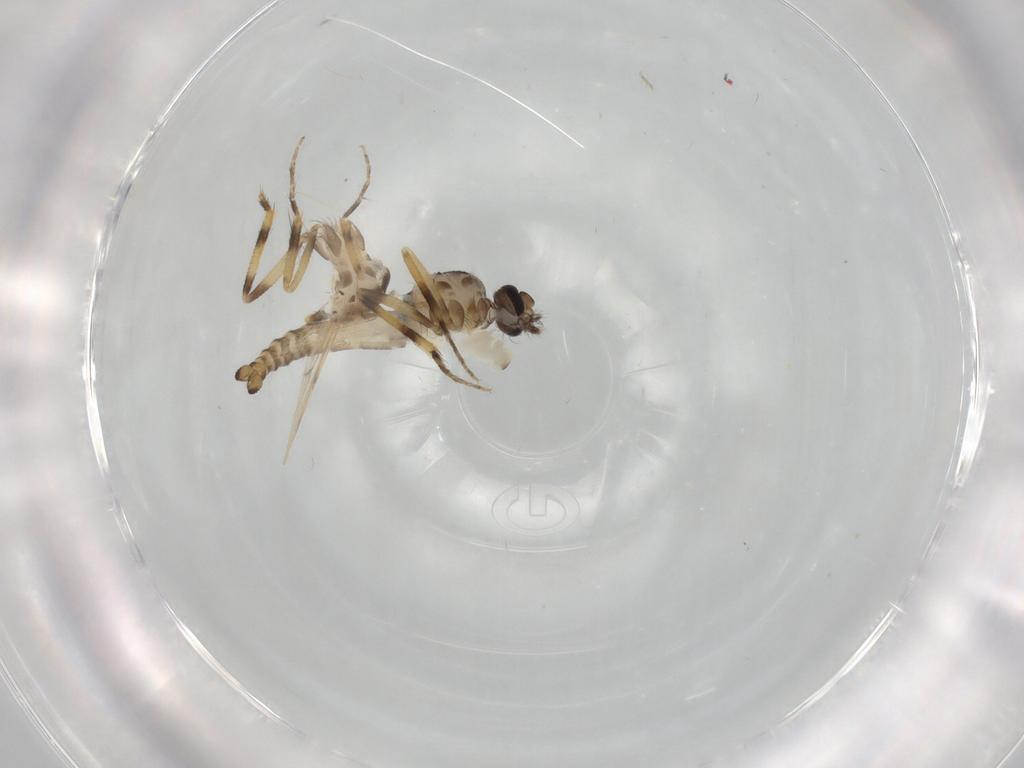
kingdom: Animalia
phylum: Arthropoda
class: Insecta
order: Diptera
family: Ceratopogonidae
